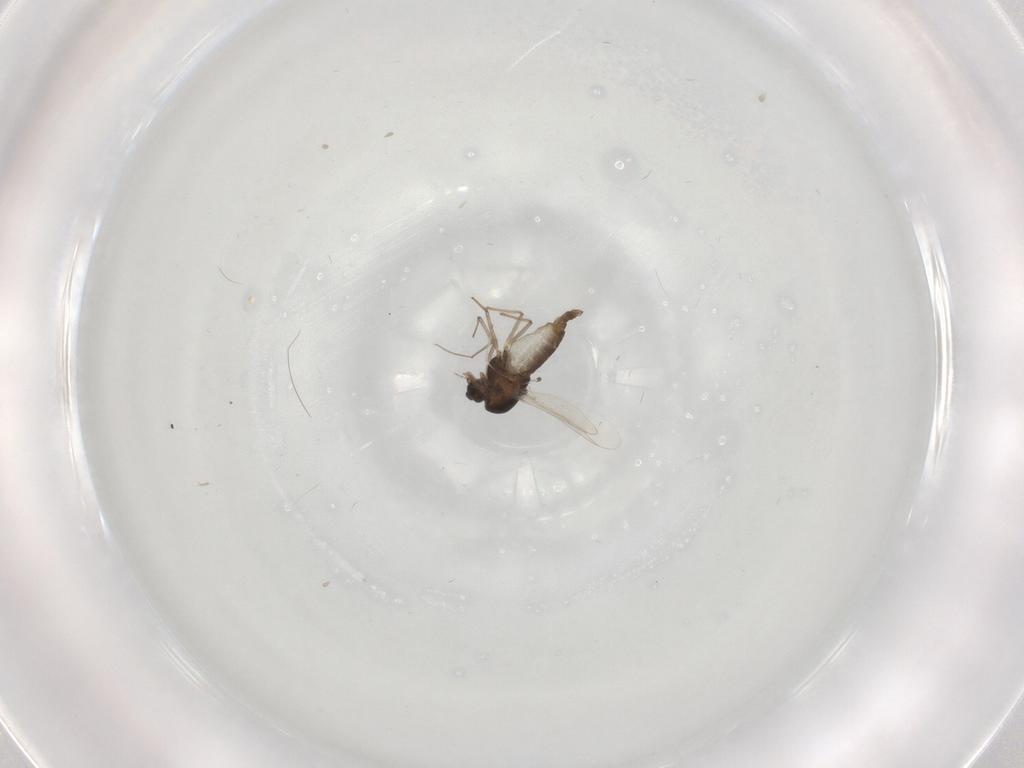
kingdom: Animalia
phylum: Arthropoda
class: Insecta
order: Diptera
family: Chironomidae
